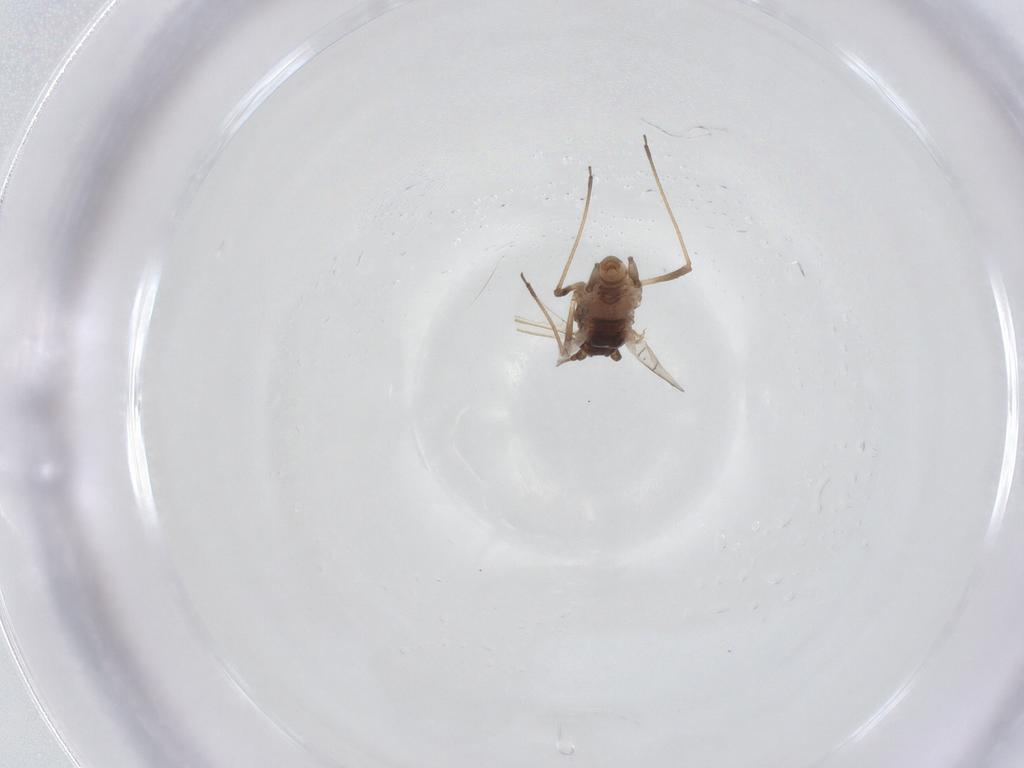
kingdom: Animalia
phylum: Arthropoda
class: Insecta
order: Hemiptera
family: Aphididae
